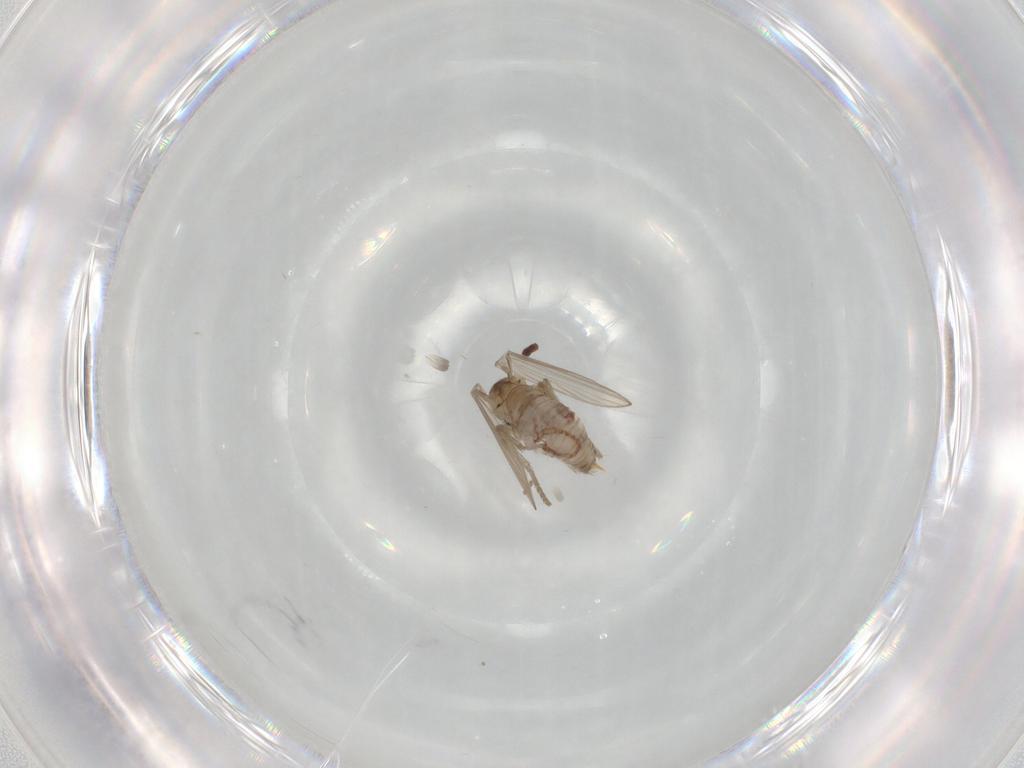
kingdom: Animalia
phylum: Arthropoda
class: Insecta
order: Diptera
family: Psychodidae
